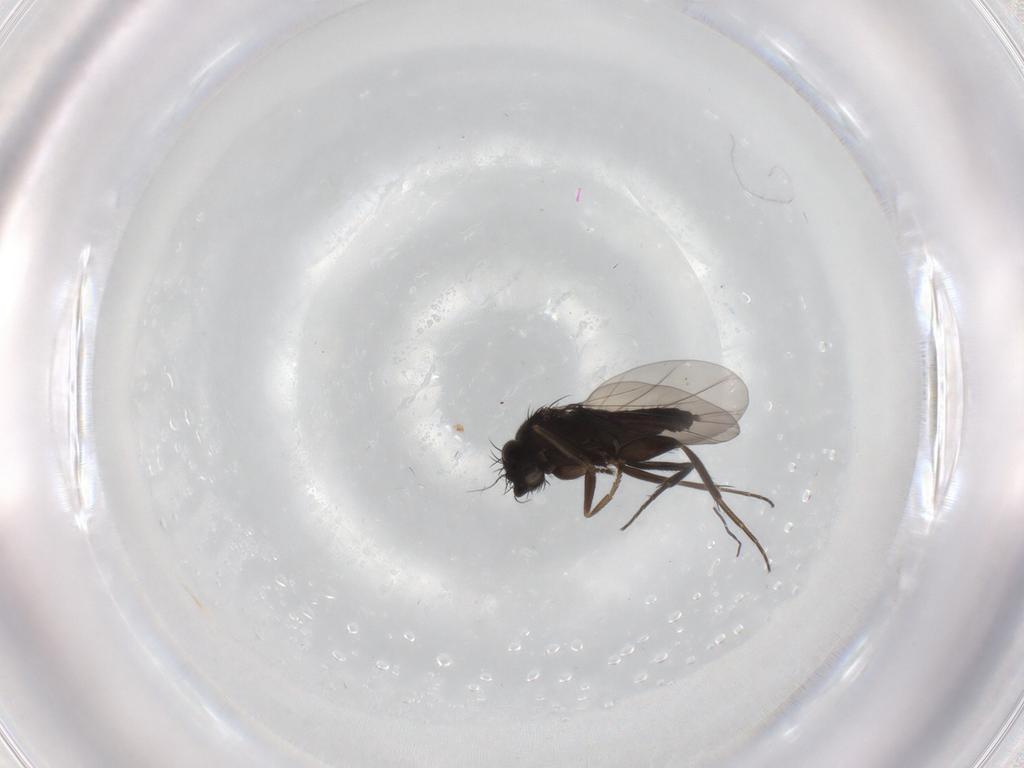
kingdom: Animalia
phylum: Arthropoda
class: Insecta
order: Diptera
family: Phoridae
